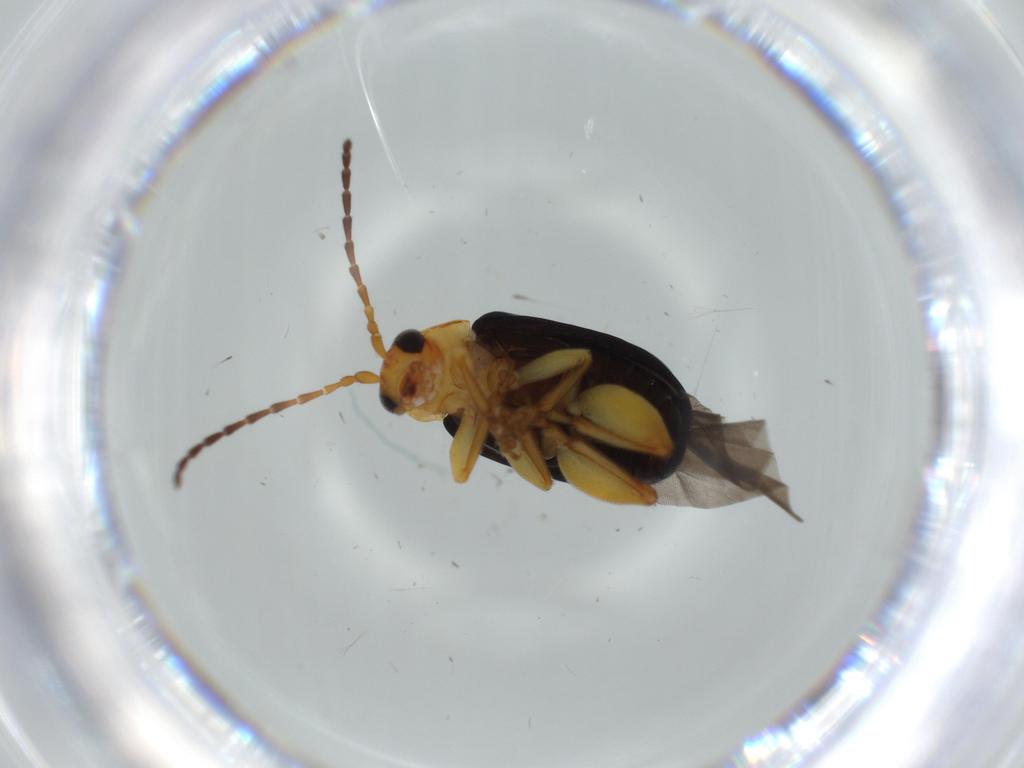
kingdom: Animalia
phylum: Arthropoda
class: Insecta
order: Coleoptera
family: Chrysomelidae
